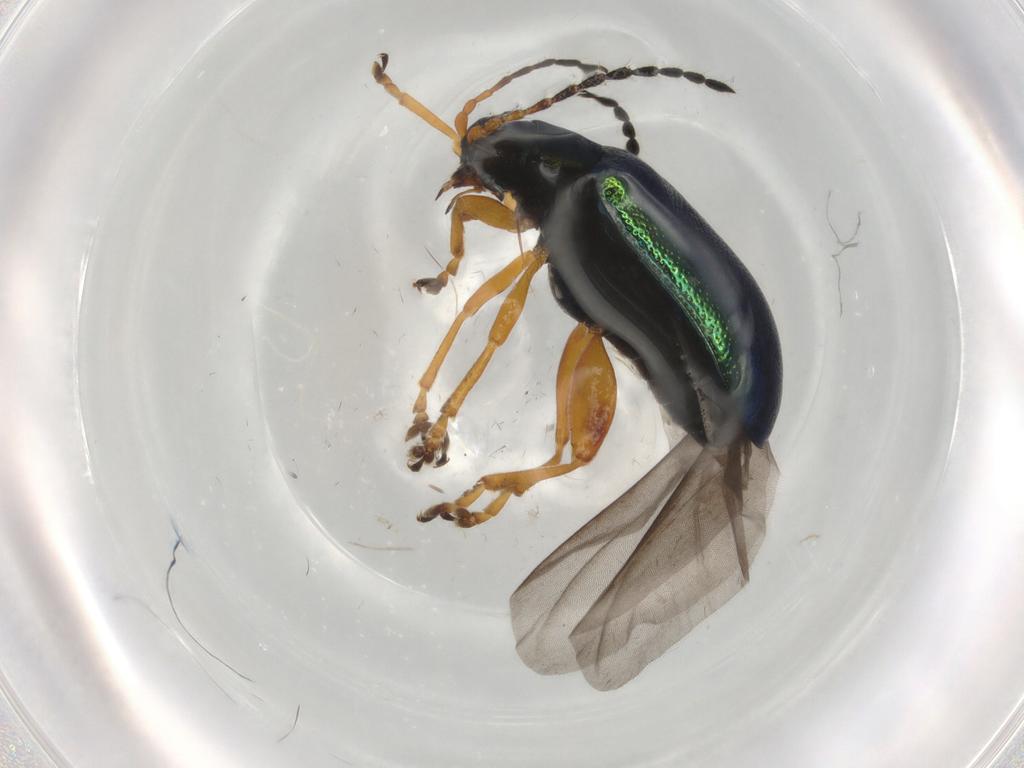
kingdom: Animalia
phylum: Arthropoda
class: Insecta
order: Coleoptera
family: Chrysomelidae
